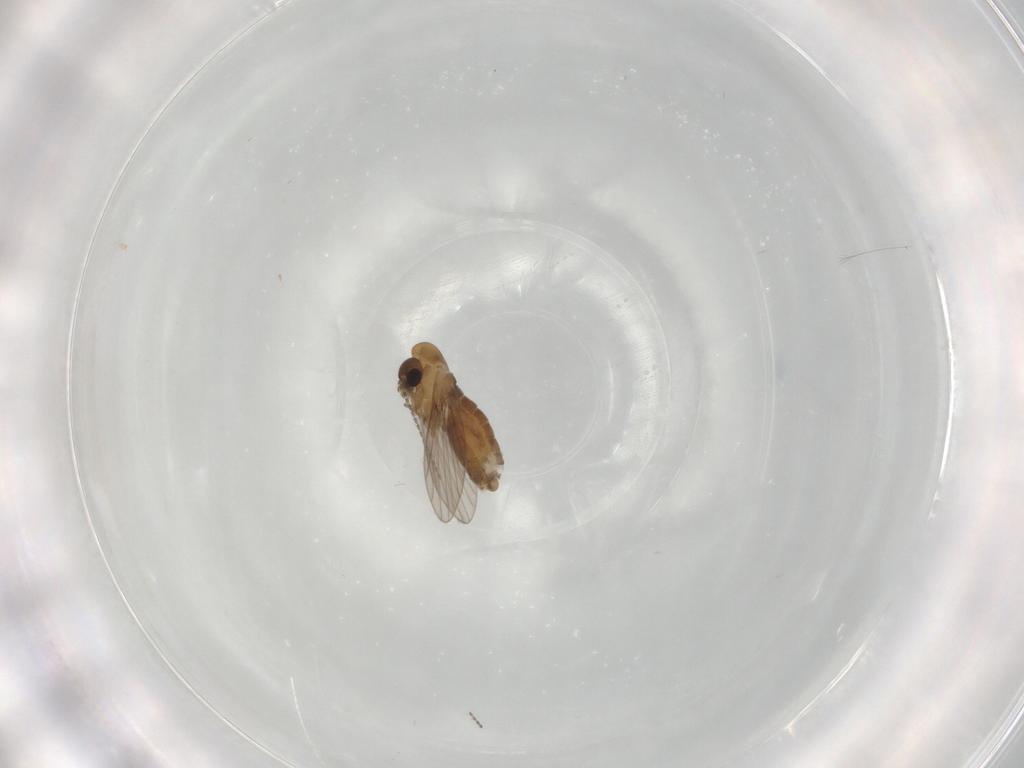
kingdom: Animalia
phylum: Arthropoda
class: Insecta
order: Diptera
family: Psychodidae
